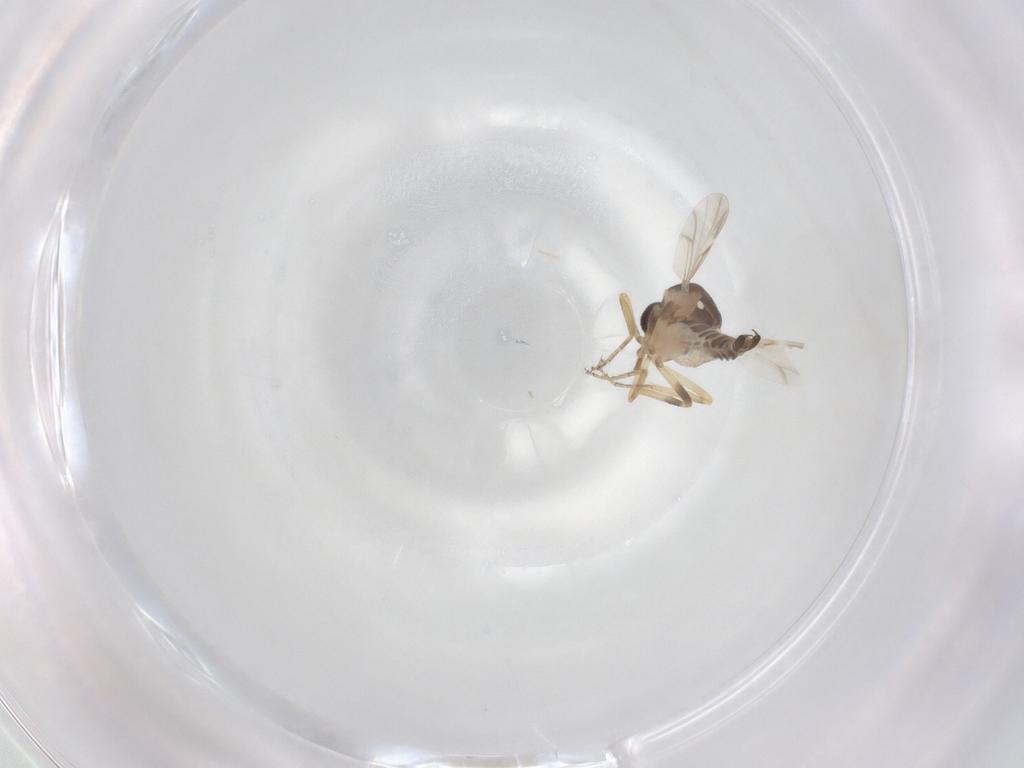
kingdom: Animalia
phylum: Arthropoda
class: Insecta
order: Diptera
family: Ceratopogonidae
